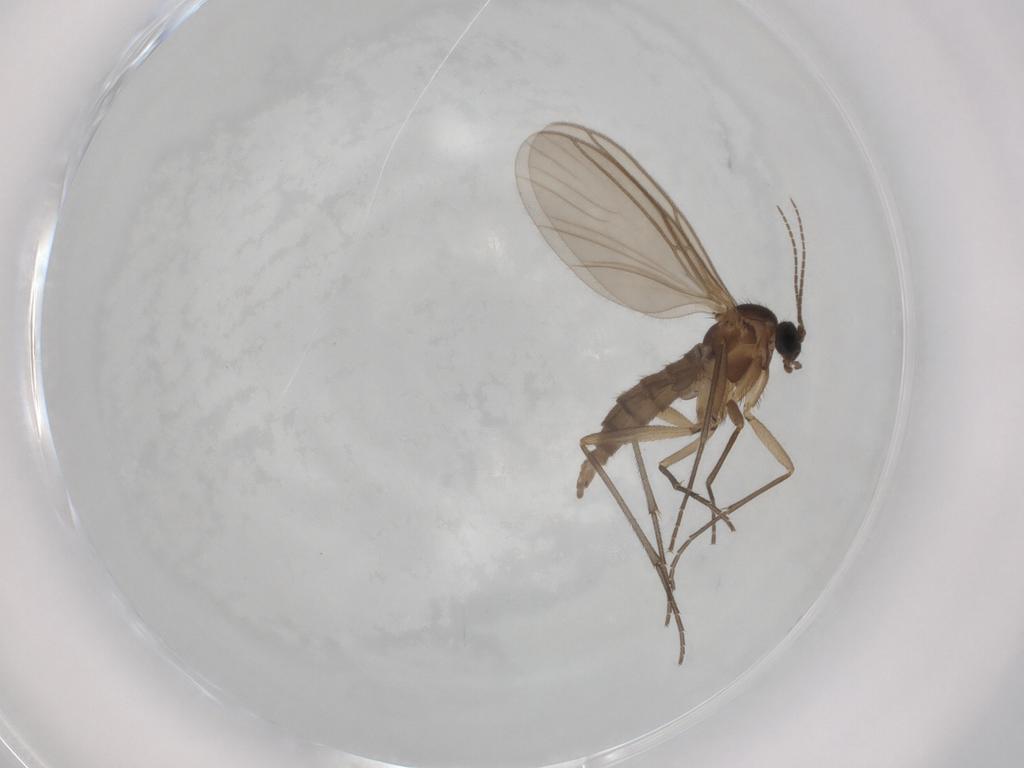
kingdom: Animalia
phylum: Arthropoda
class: Insecta
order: Diptera
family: Sciaridae
